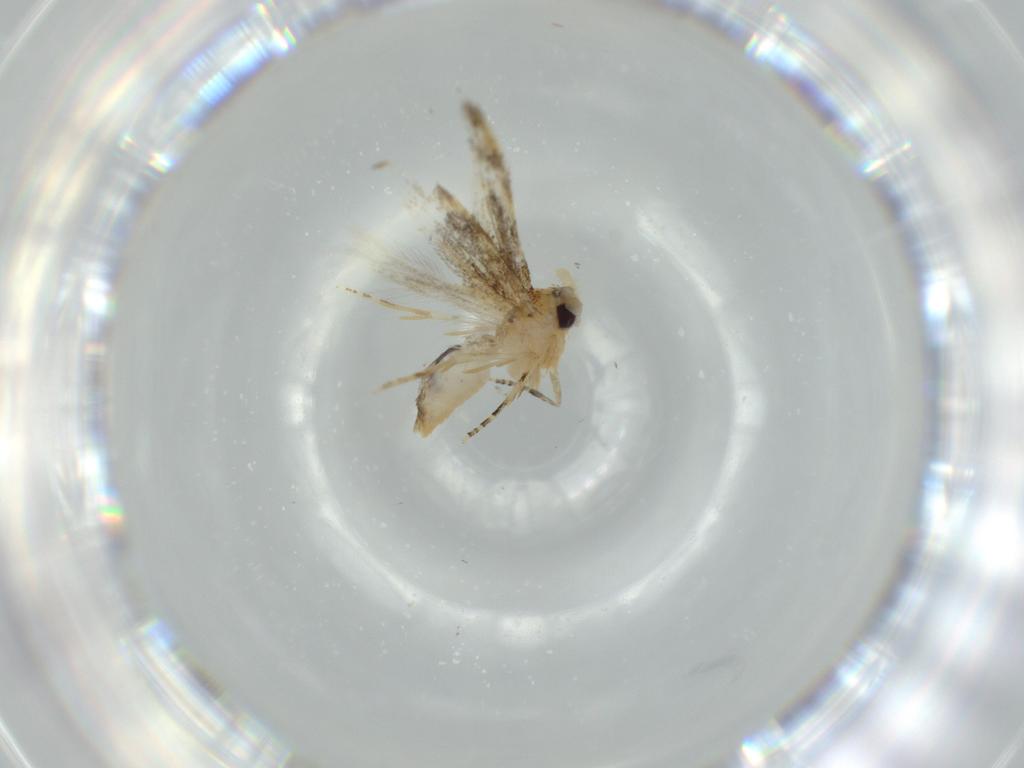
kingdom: Animalia
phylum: Arthropoda
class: Insecta
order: Lepidoptera
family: Bucculatricidae
